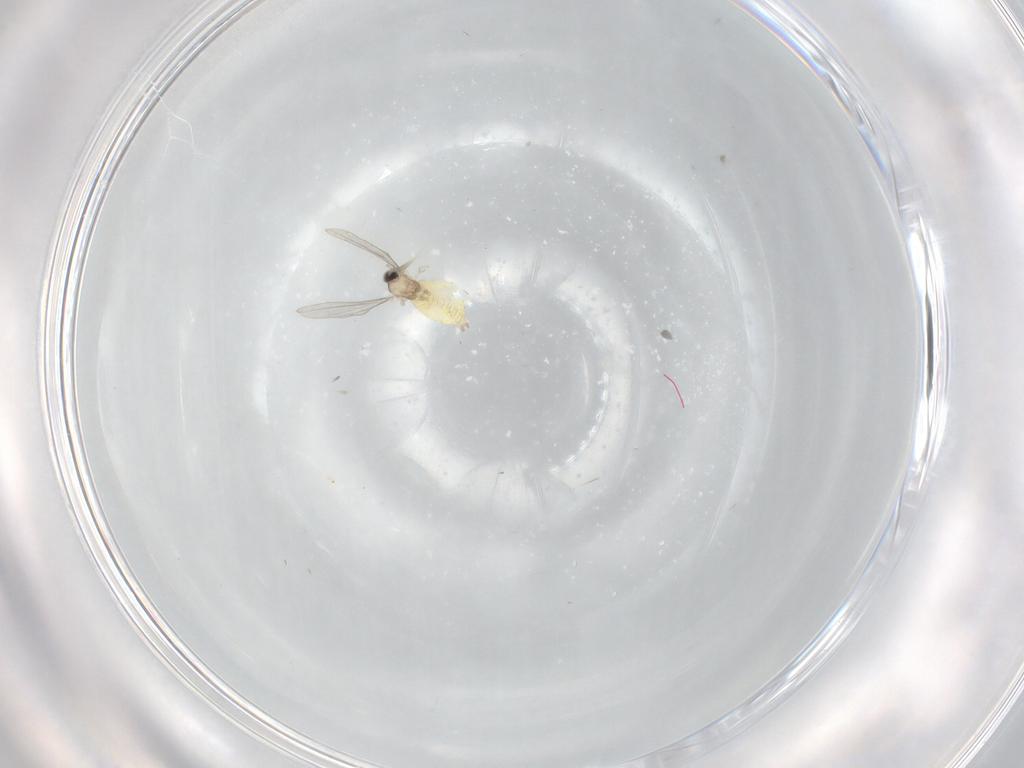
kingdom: Animalia
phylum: Arthropoda
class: Insecta
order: Diptera
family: Cecidomyiidae
